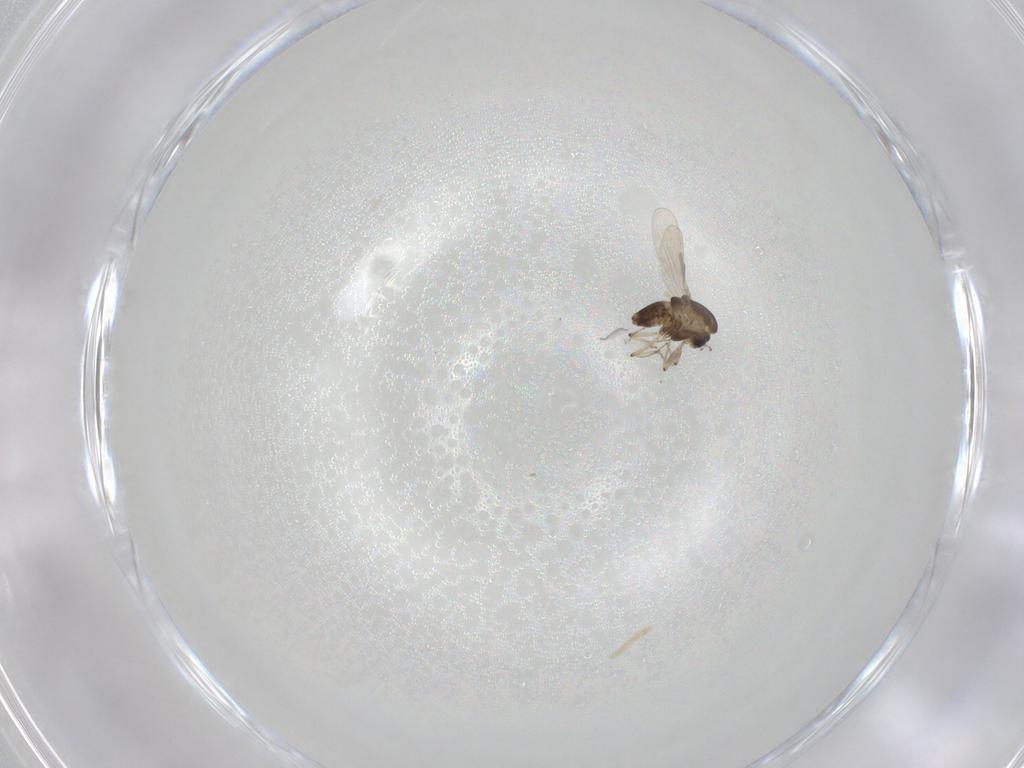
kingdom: Animalia
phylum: Arthropoda
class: Insecta
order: Diptera
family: Chironomidae
